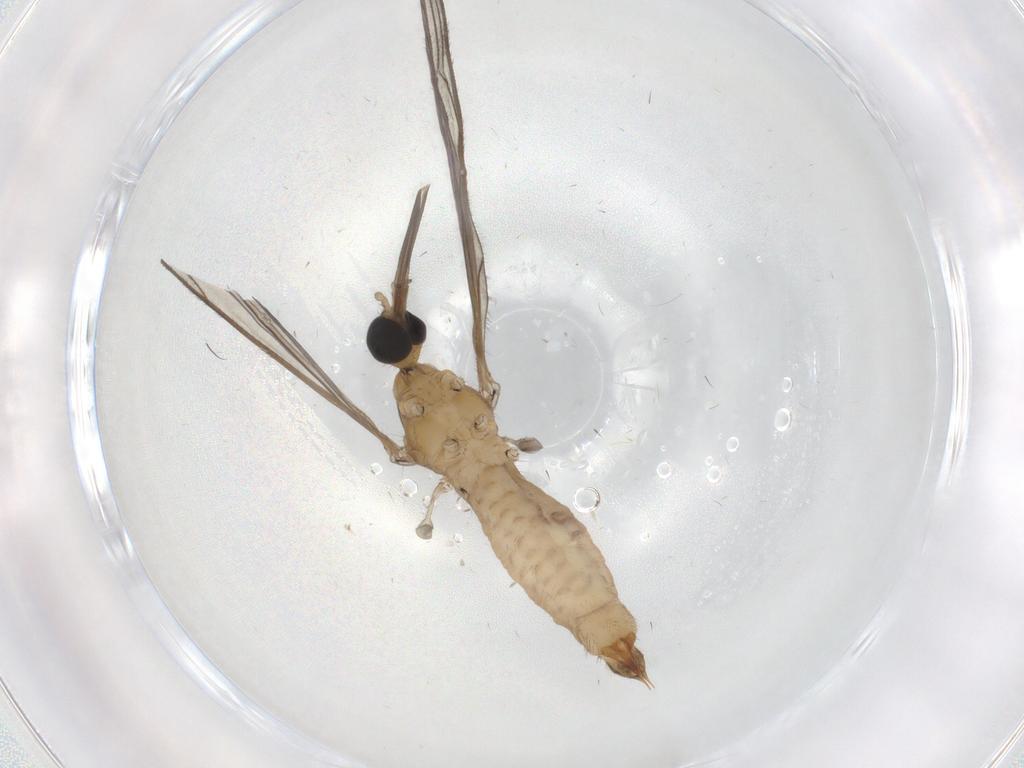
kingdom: Animalia
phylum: Arthropoda
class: Insecta
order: Diptera
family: Limoniidae
